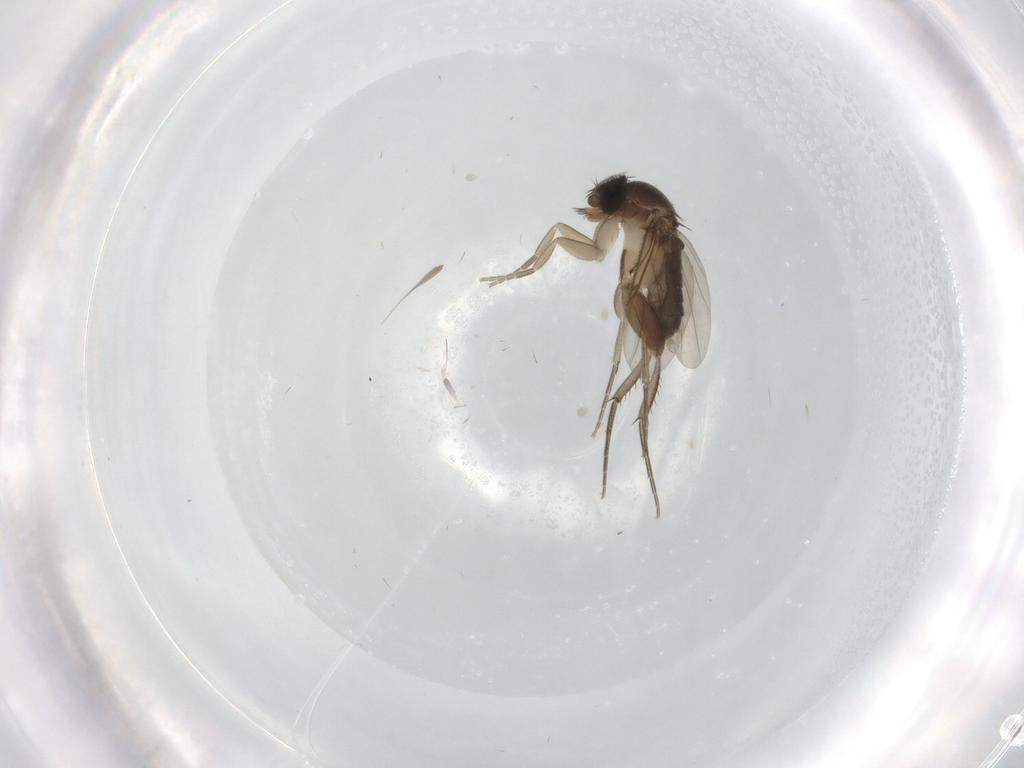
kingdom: Animalia
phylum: Arthropoda
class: Insecta
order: Diptera
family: Phoridae
